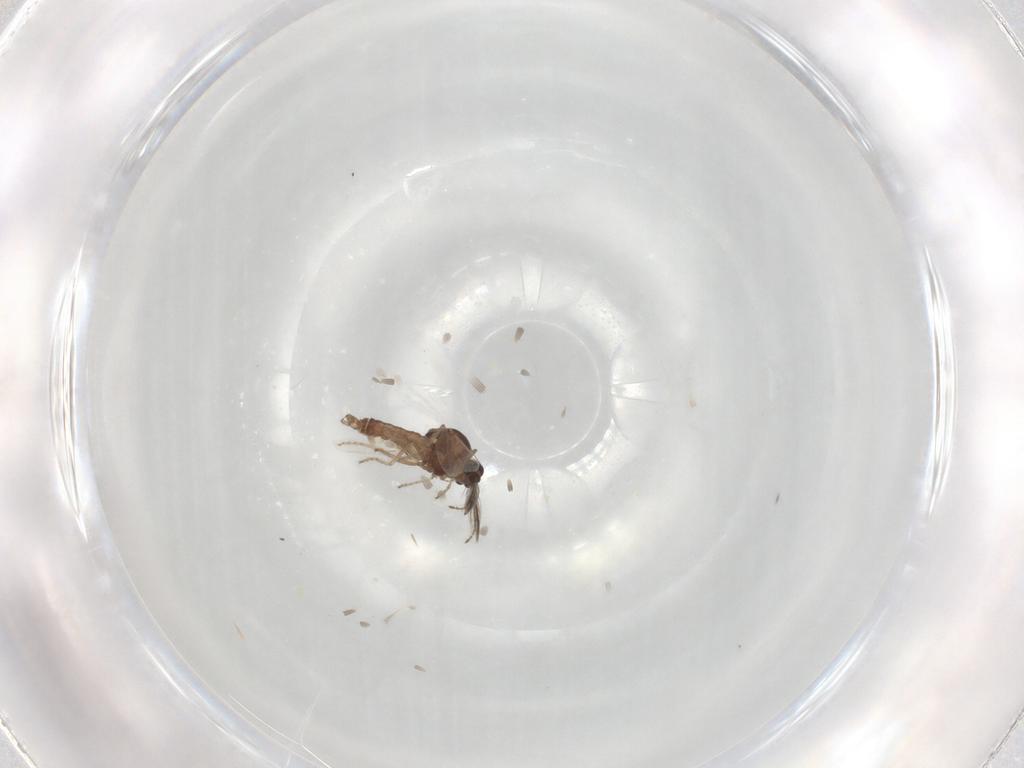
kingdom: Animalia
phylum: Arthropoda
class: Insecta
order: Diptera
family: Ceratopogonidae
